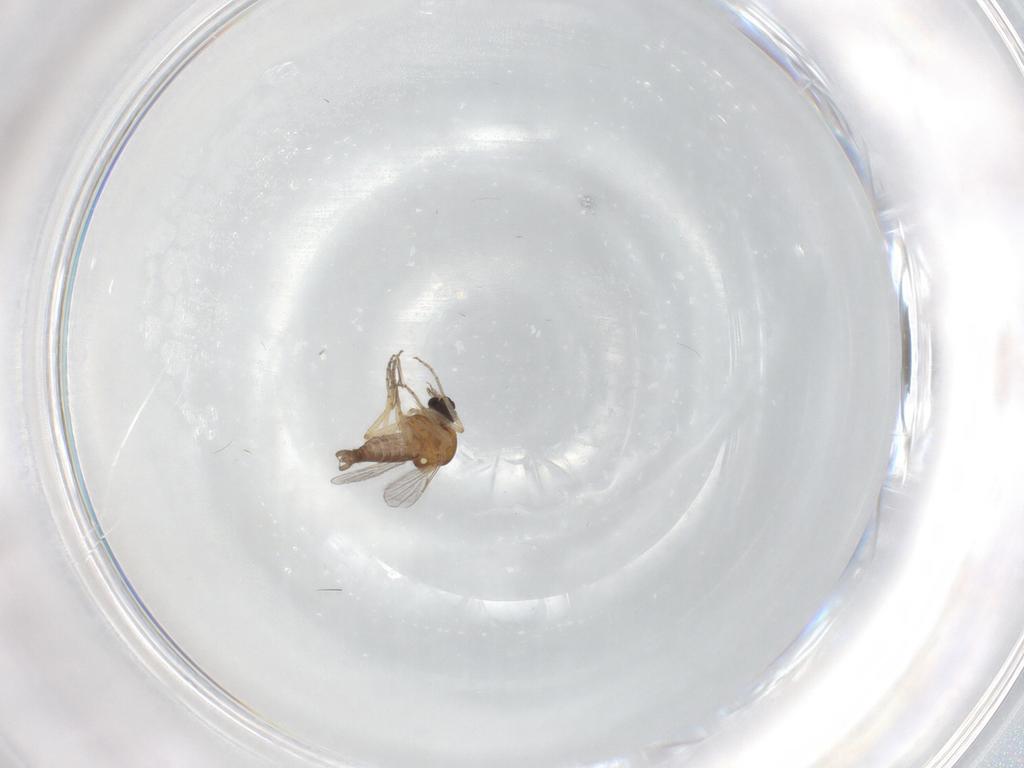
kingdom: Animalia
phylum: Arthropoda
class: Insecta
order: Diptera
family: Ceratopogonidae
